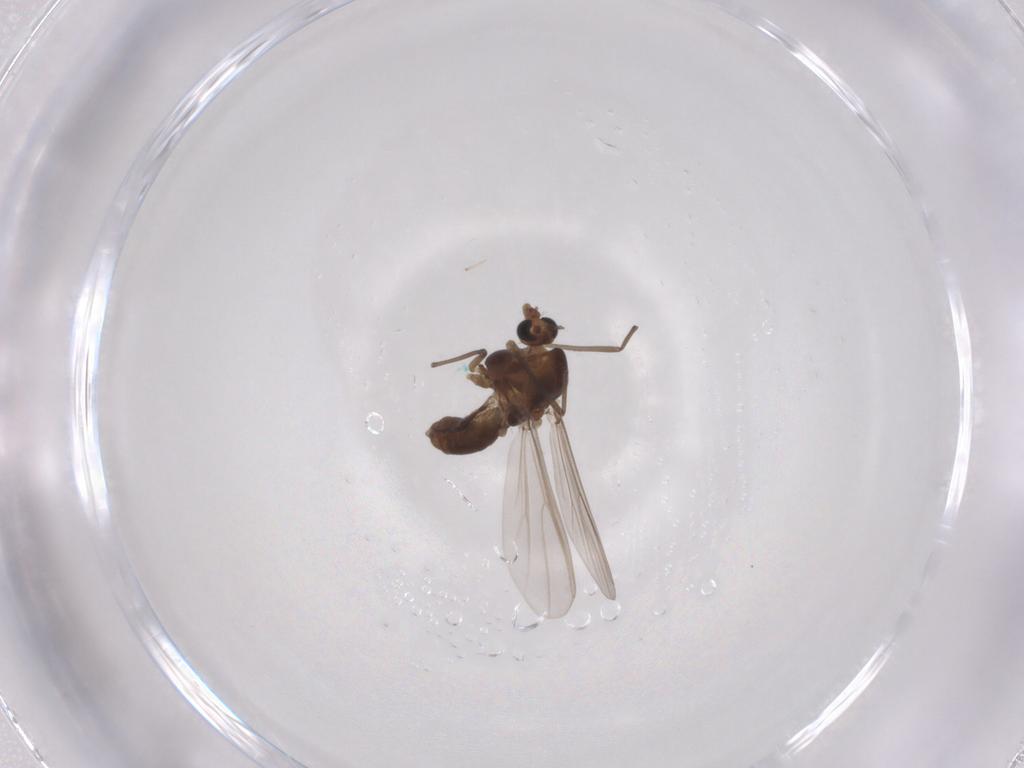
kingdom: Animalia
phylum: Arthropoda
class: Insecta
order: Diptera
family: Chironomidae
